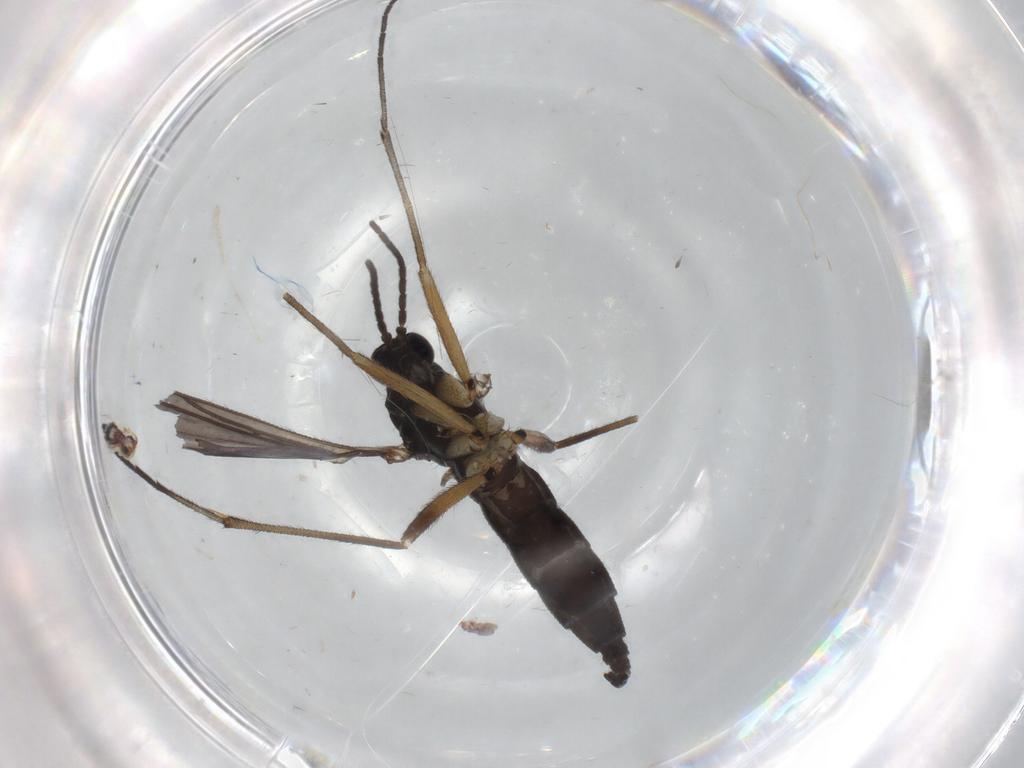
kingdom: Animalia
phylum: Arthropoda
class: Insecta
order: Diptera
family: Sciaridae
